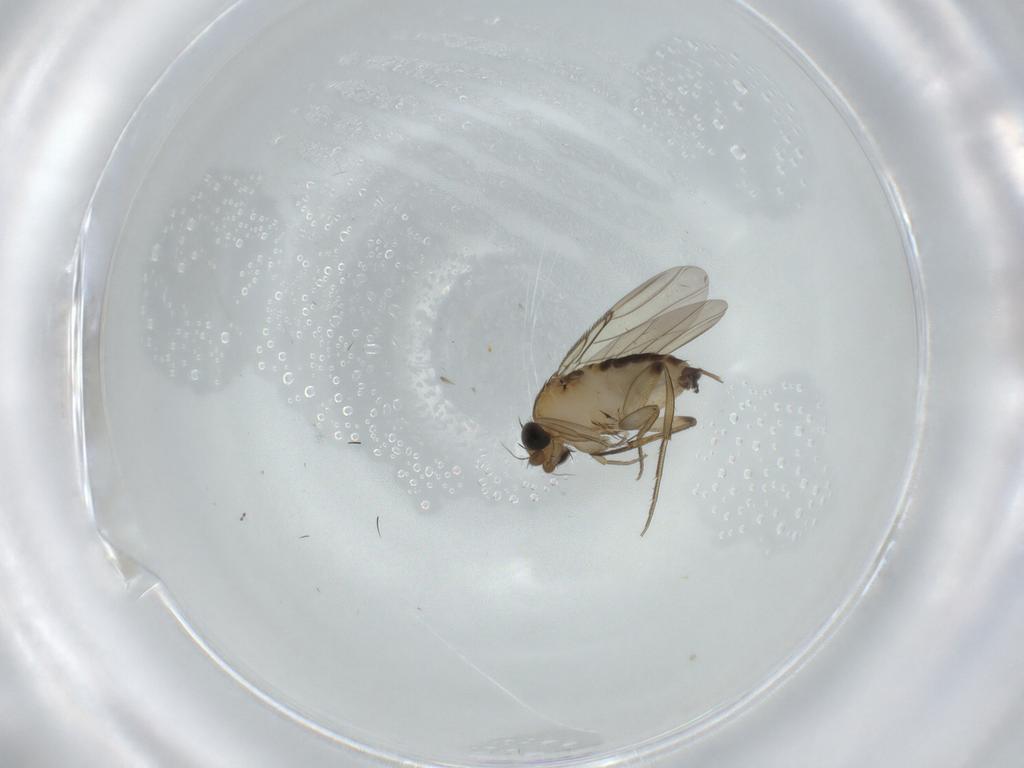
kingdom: Animalia
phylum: Arthropoda
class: Insecta
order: Diptera
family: Phoridae
